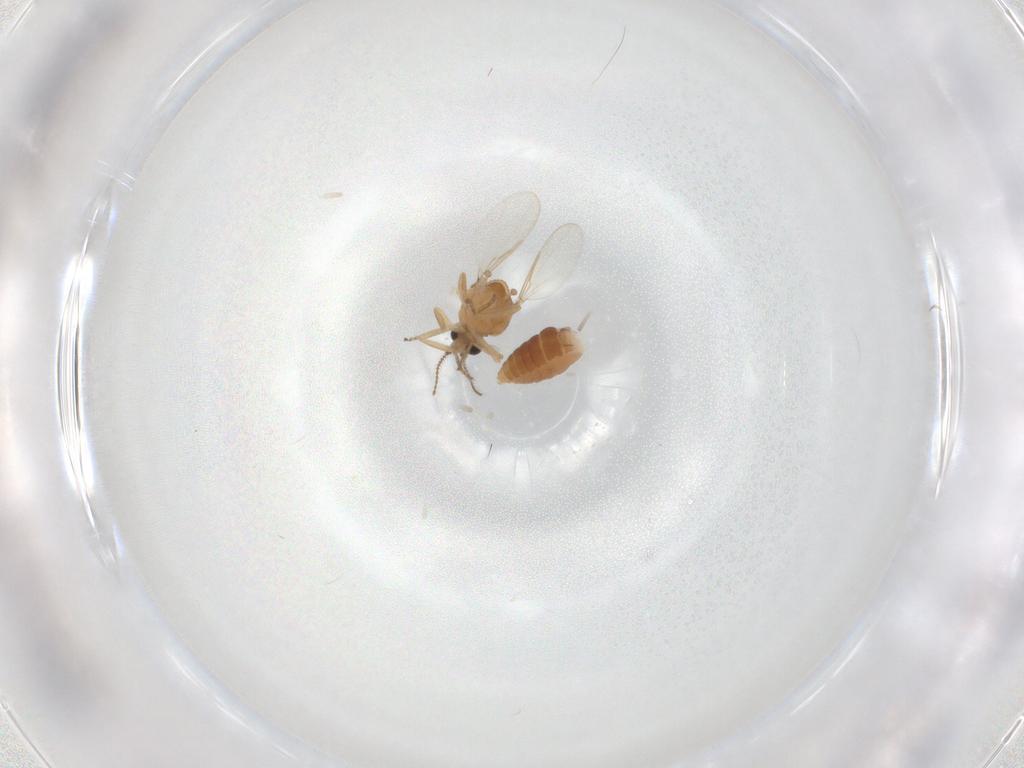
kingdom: Animalia
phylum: Arthropoda
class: Insecta
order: Diptera
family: Ceratopogonidae
